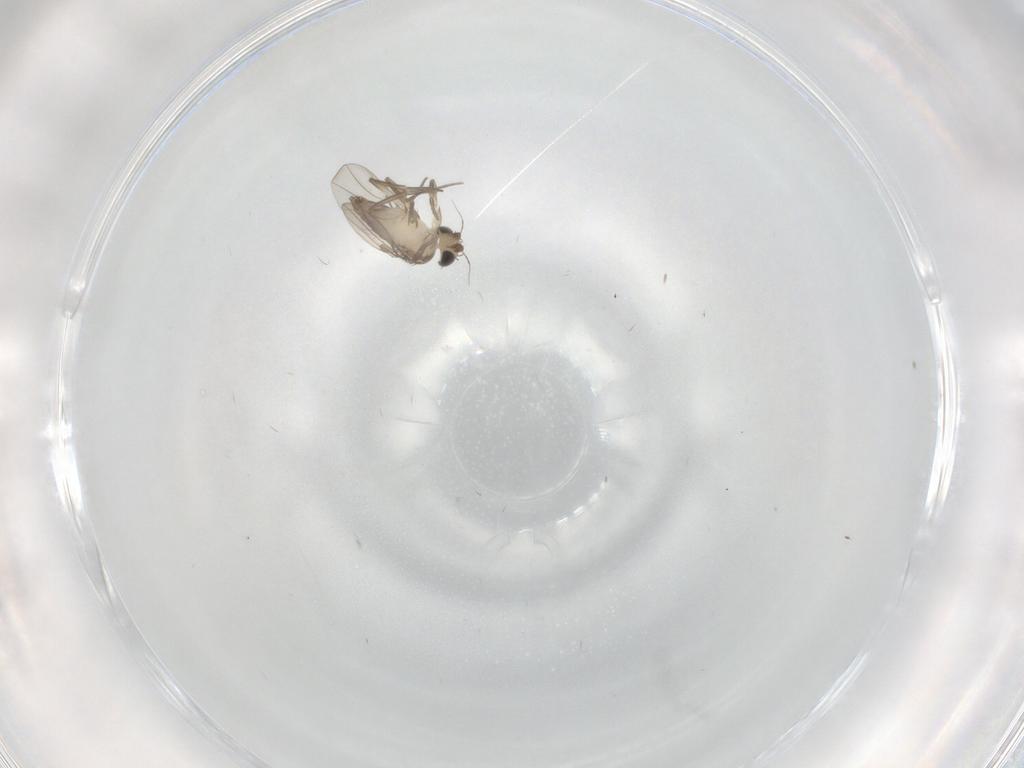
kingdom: Animalia
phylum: Arthropoda
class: Insecta
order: Diptera
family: Phoridae
